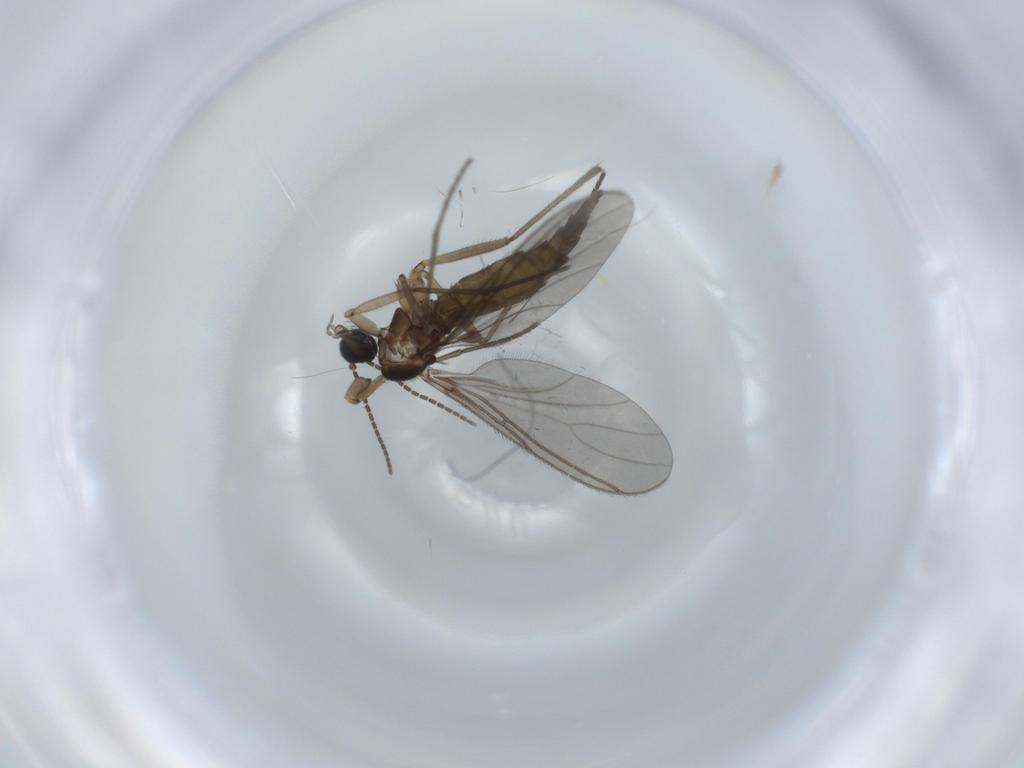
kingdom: Animalia
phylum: Arthropoda
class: Insecta
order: Diptera
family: Sciaridae
